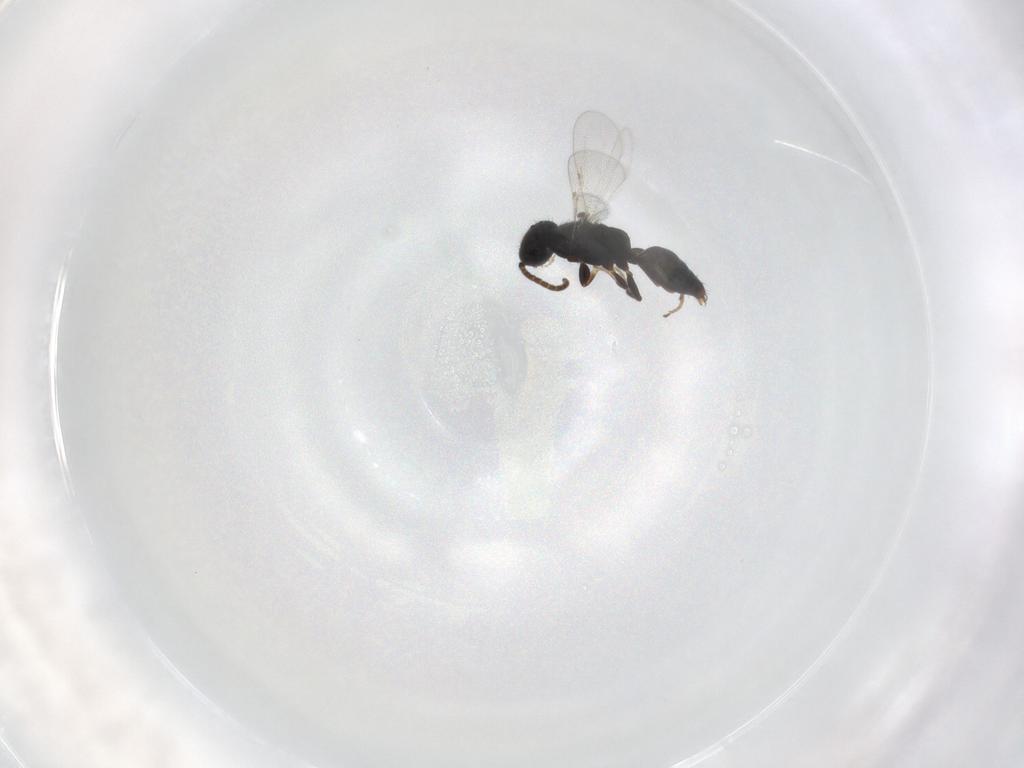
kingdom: Animalia
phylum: Arthropoda
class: Insecta
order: Hymenoptera
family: Bethylidae
